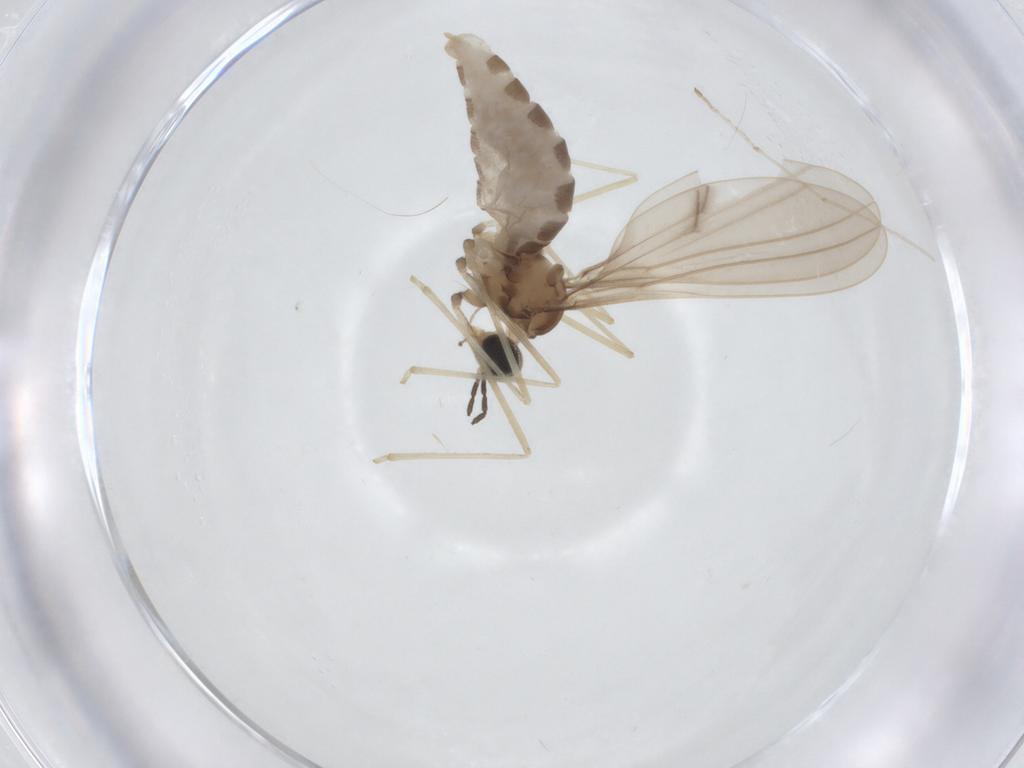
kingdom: Animalia
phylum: Arthropoda
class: Insecta
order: Diptera
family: Cecidomyiidae
